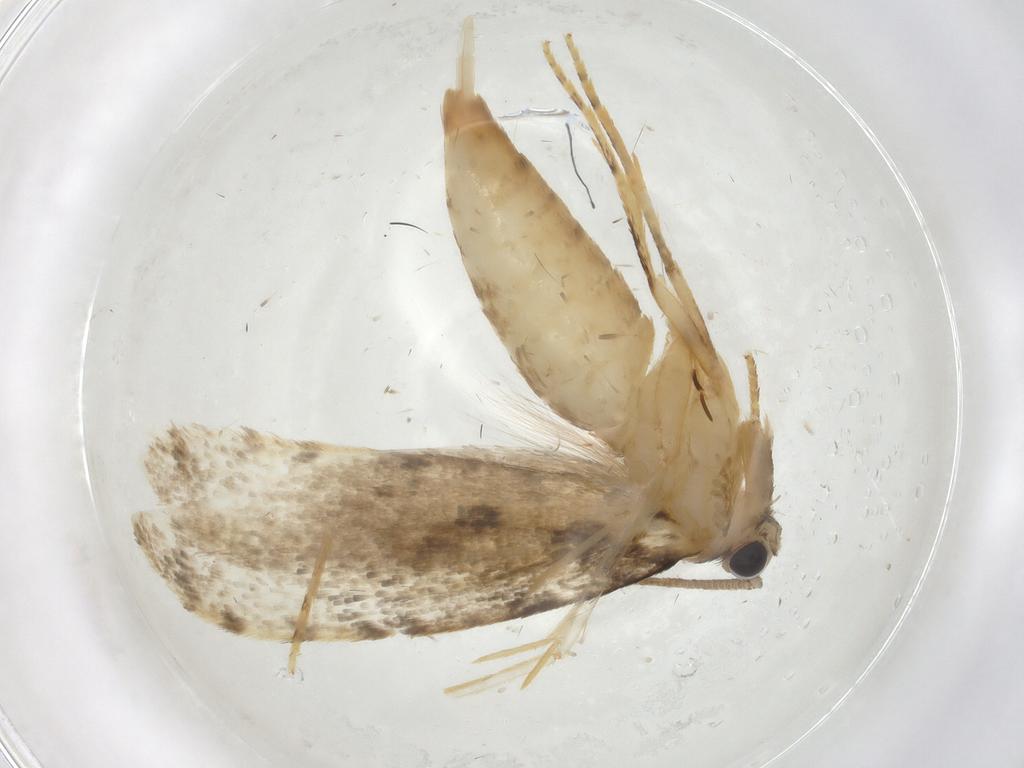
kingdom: Animalia
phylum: Arthropoda
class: Insecta
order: Lepidoptera
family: Tineidae
